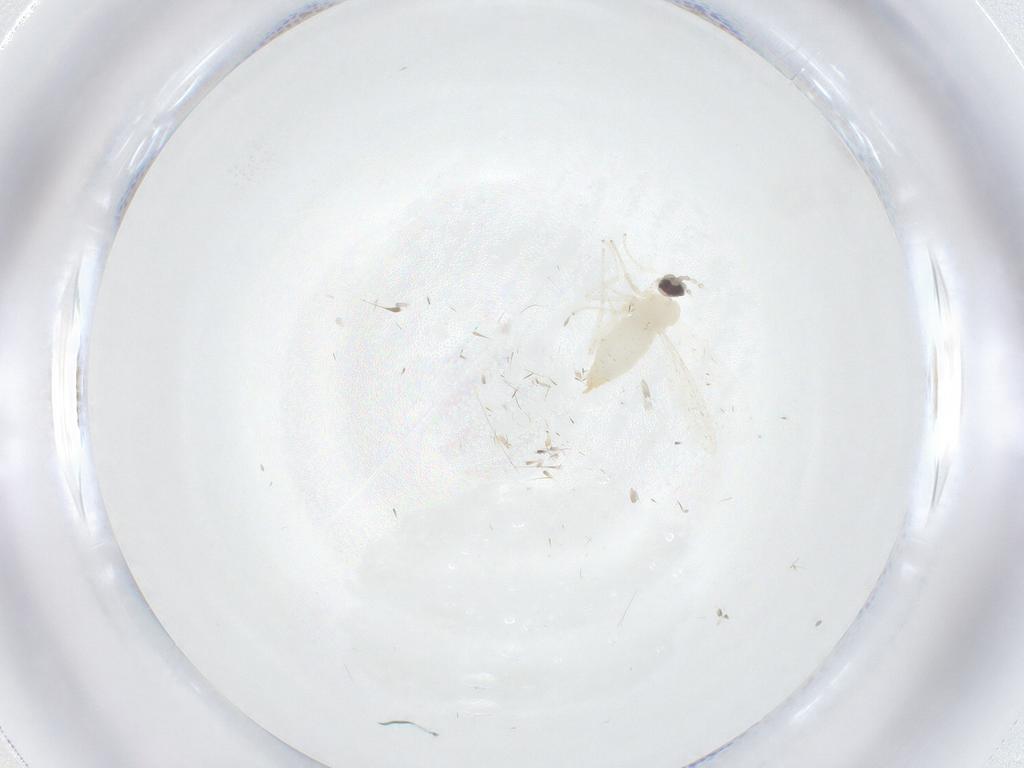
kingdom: Animalia
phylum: Arthropoda
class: Insecta
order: Diptera
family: Cecidomyiidae
